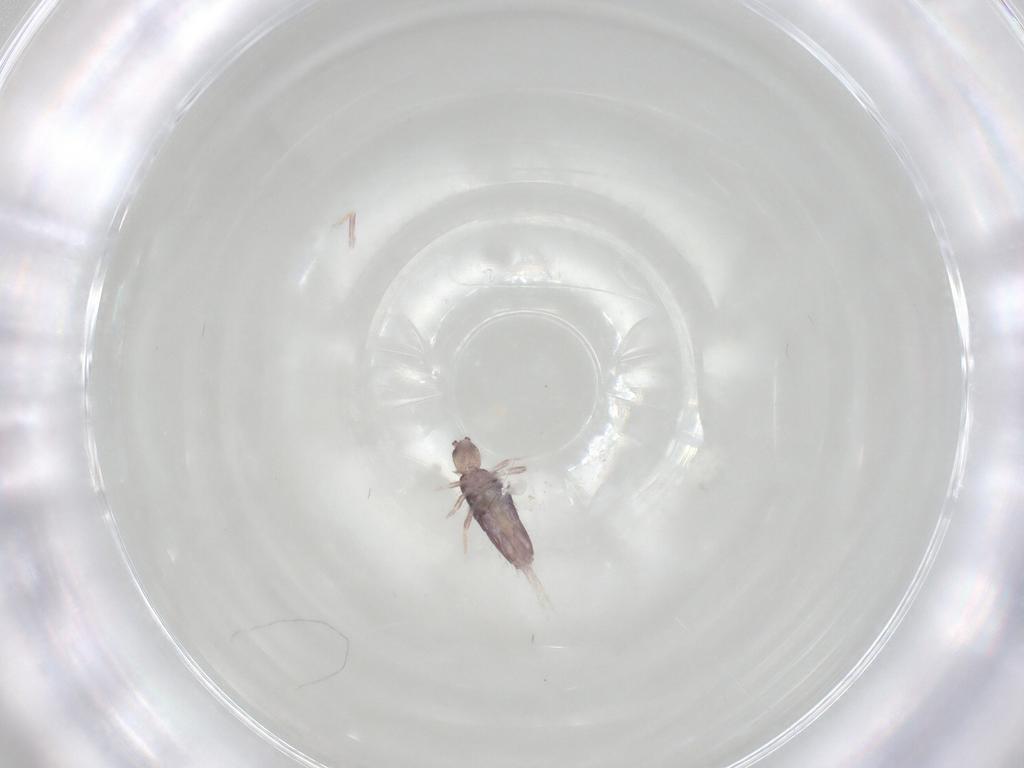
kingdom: Animalia
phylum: Arthropoda
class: Collembola
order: Entomobryomorpha
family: Entomobryidae
